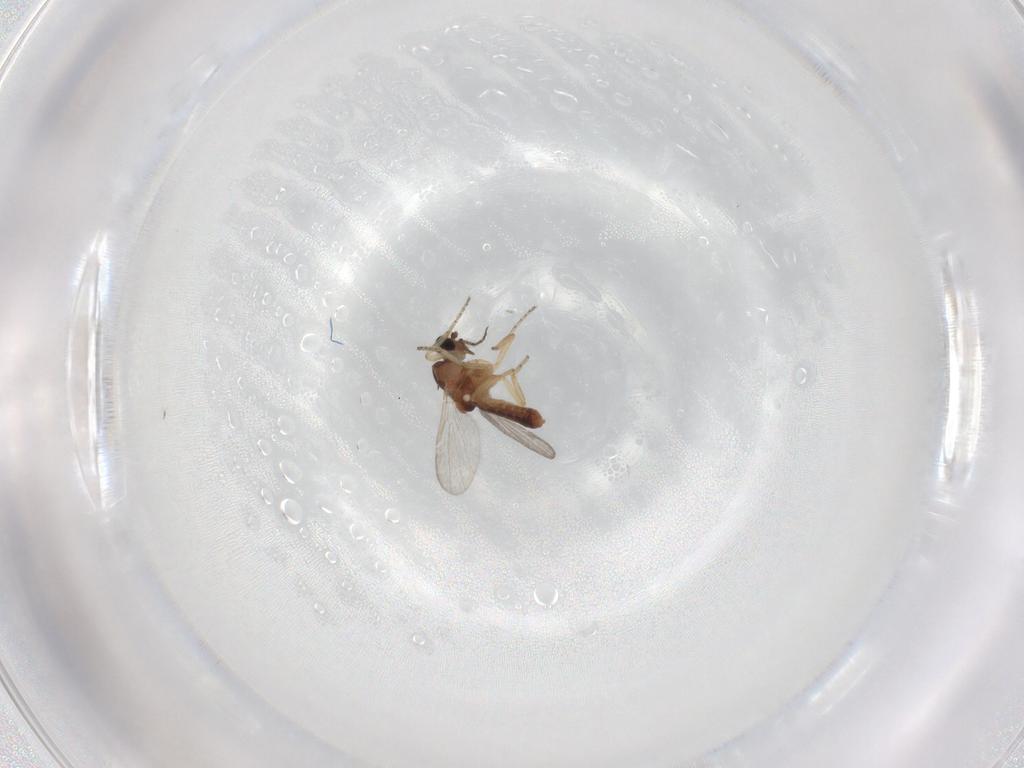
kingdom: Animalia
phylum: Arthropoda
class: Insecta
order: Diptera
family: Ceratopogonidae
